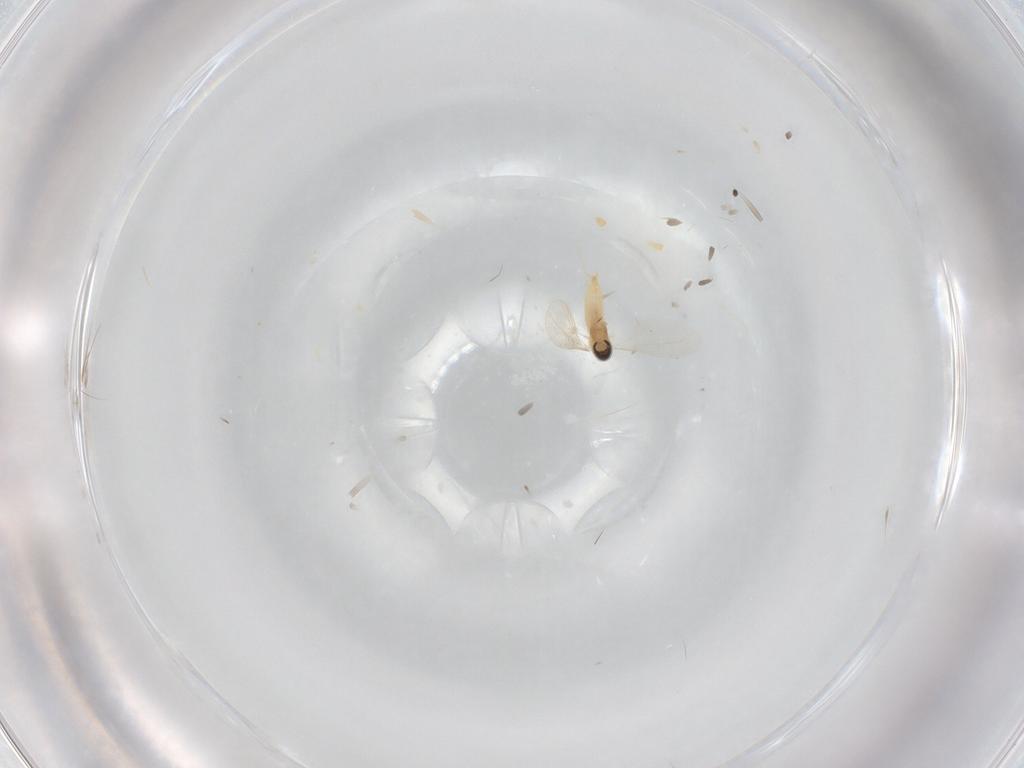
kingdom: Animalia
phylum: Arthropoda
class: Insecta
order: Diptera
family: Cecidomyiidae
